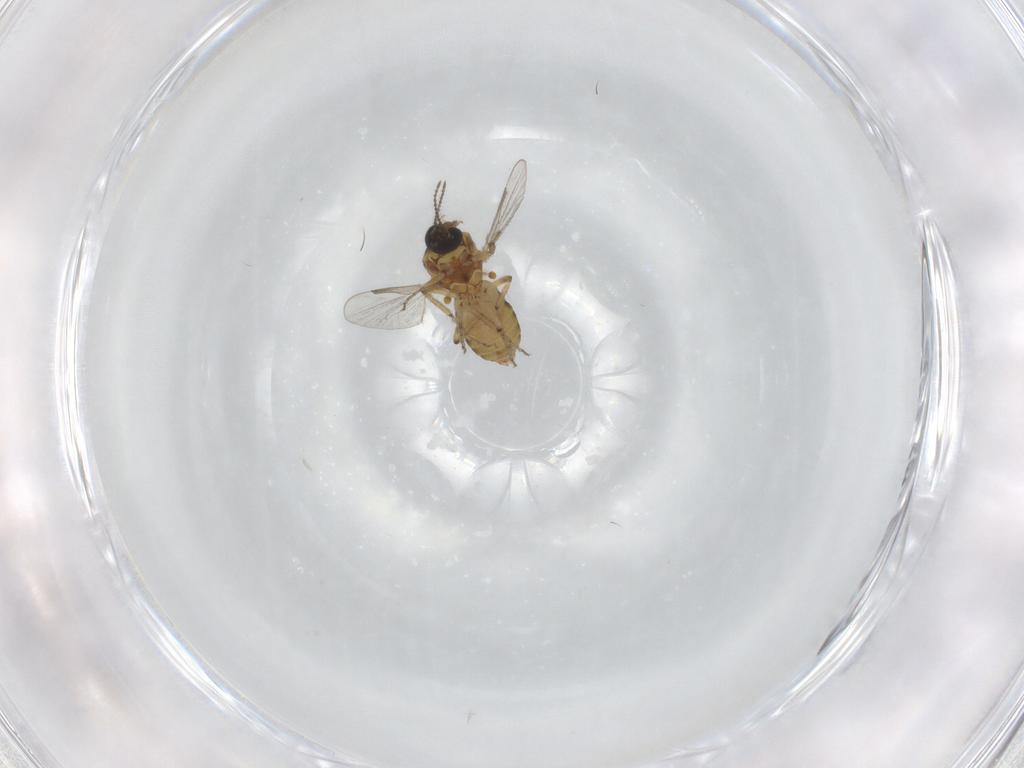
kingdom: Animalia
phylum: Arthropoda
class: Insecta
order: Diptera
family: Ceratopogonidae
